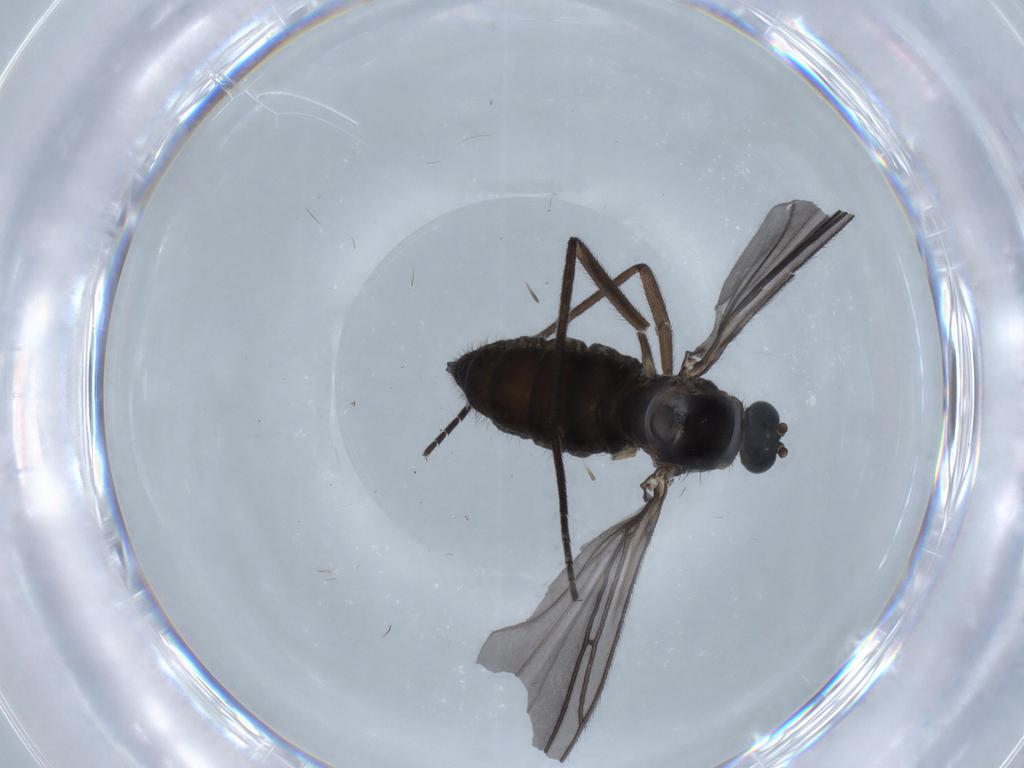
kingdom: Animalia
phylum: Arthropoda
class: Insecta
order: Diptera
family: Sciaridae
